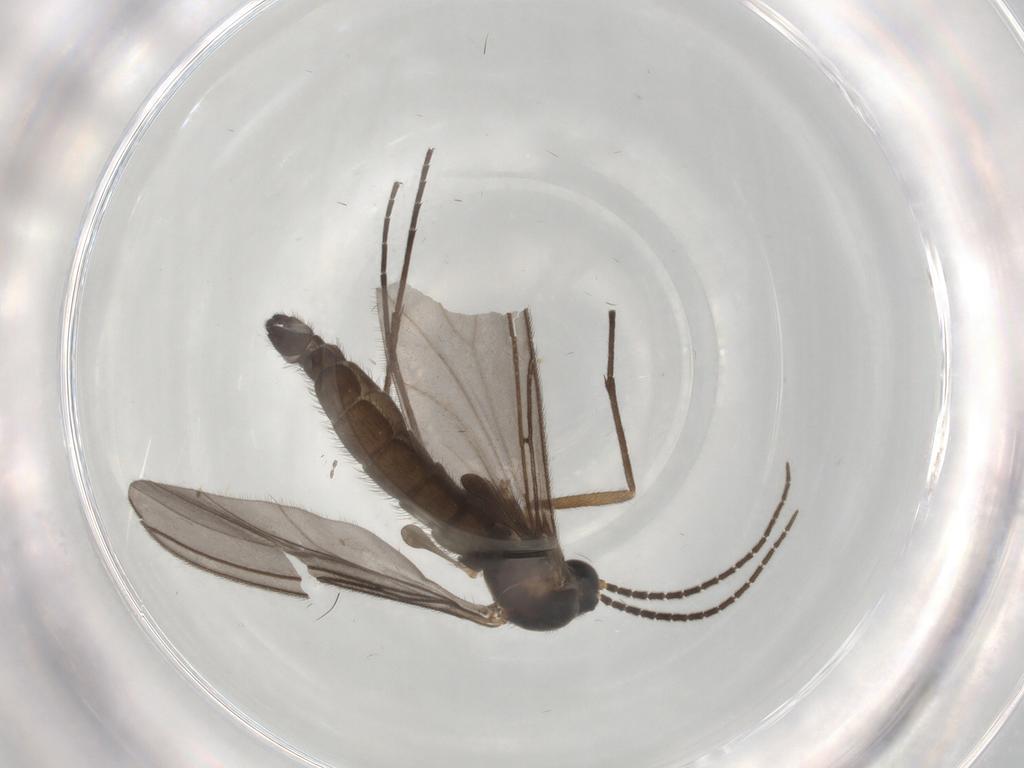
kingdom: Animalia
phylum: Arthropoda
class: Insecta
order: Diptera
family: Sciaridae
